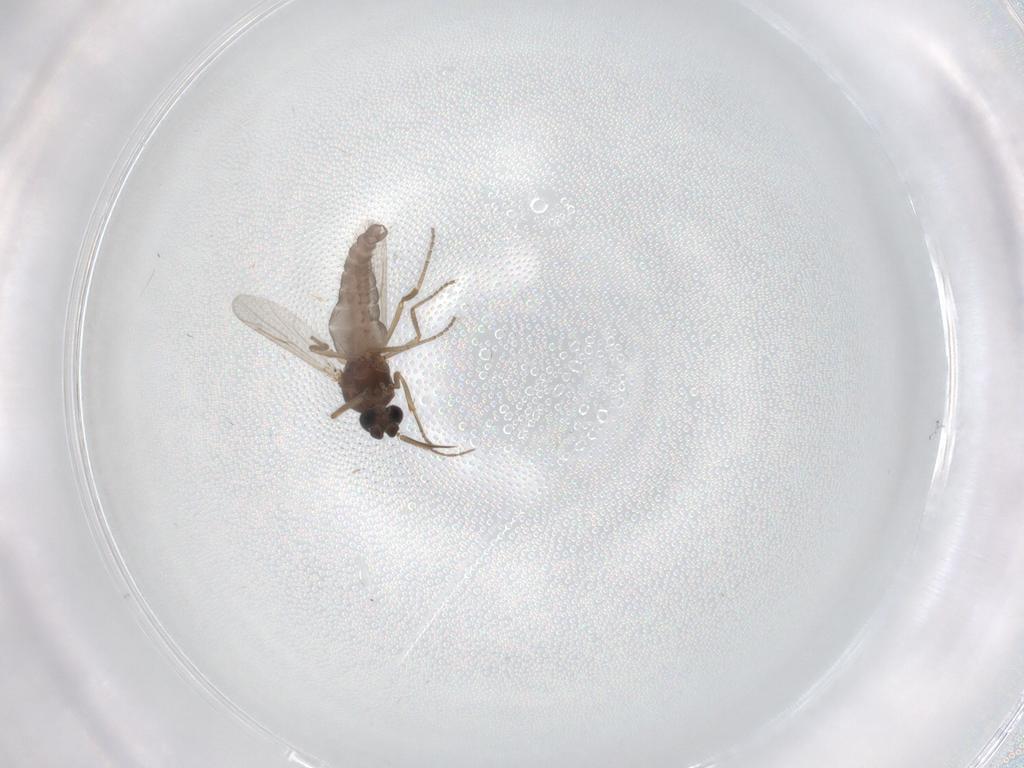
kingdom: Animalia
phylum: Arthropoda
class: Insecta
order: Diptera
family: Ceratopogonidae
